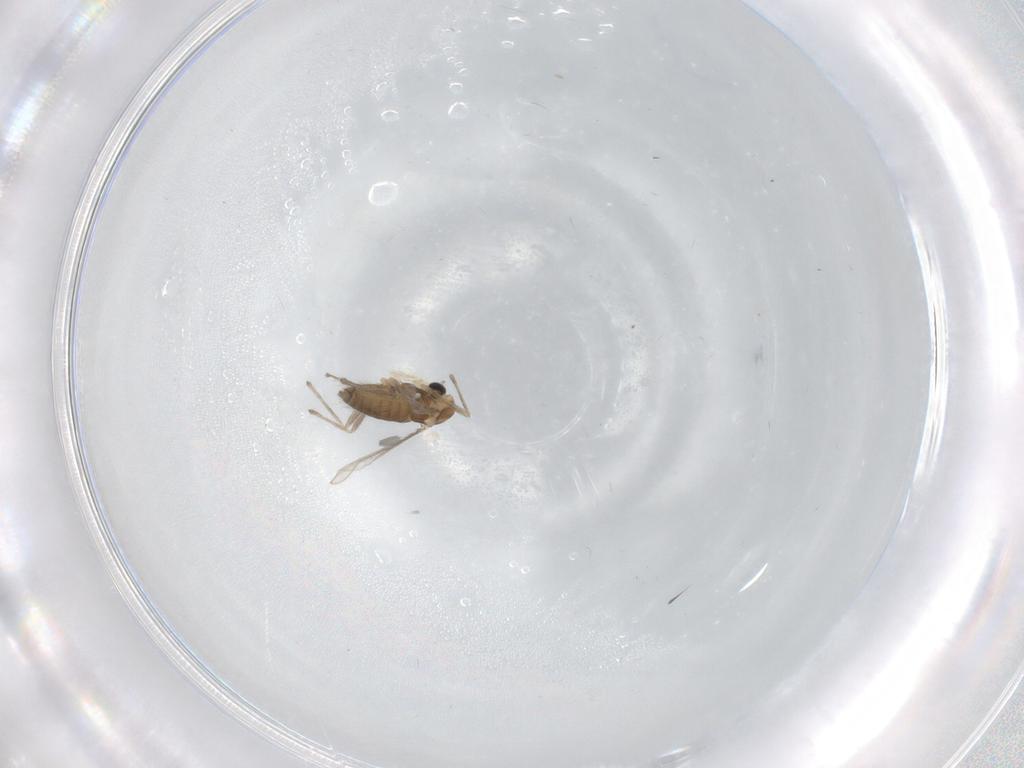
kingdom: Animalia
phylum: Arthropoda
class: Insecta
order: Diptera
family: Chironomidae
